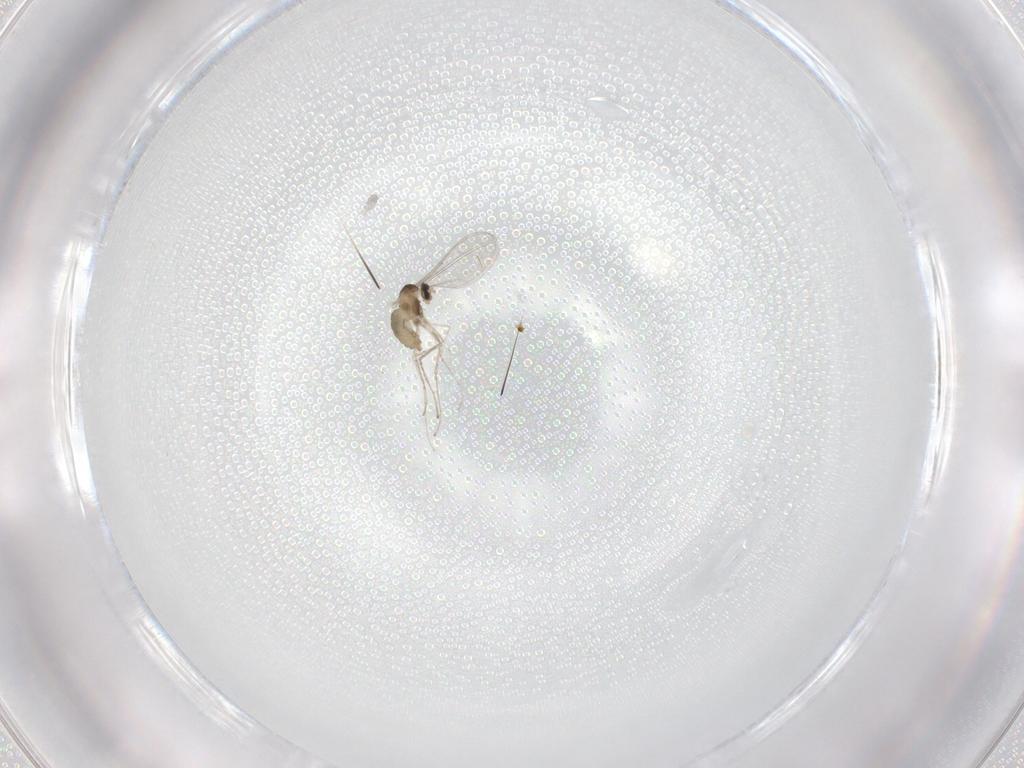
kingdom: Animalia
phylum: Arthropoda
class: Insecta
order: Diptera
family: Cecidomyiidae
